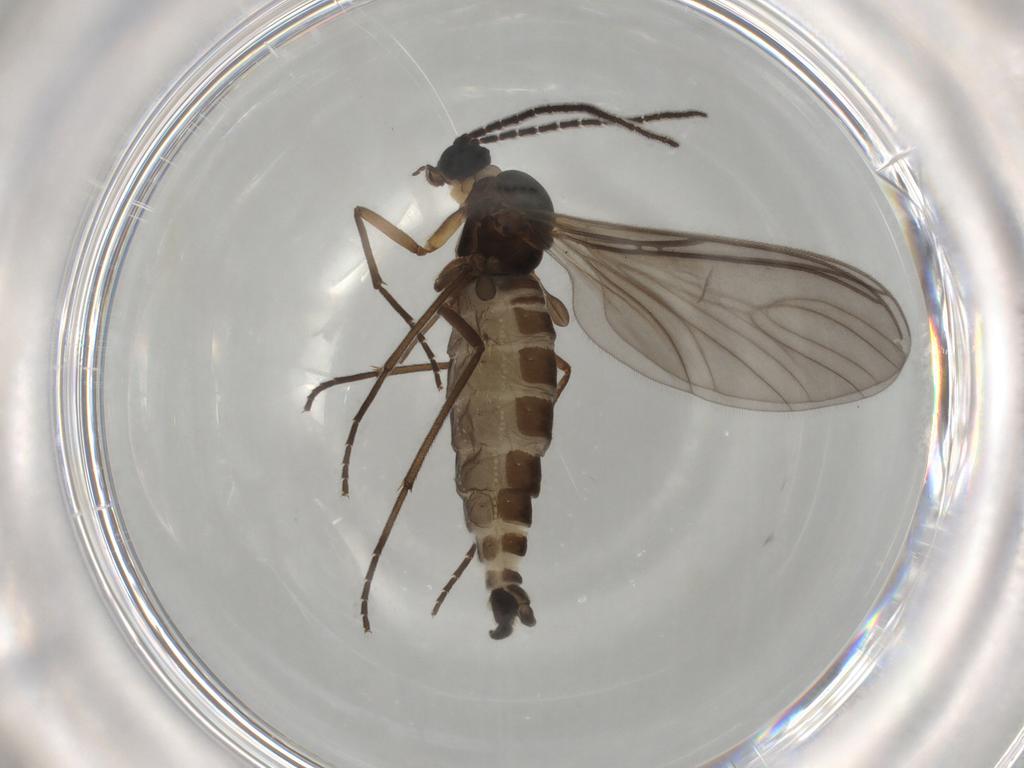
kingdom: Animalia
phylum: Arthropoda
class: Insecta
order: Diptera
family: Sciaridae
